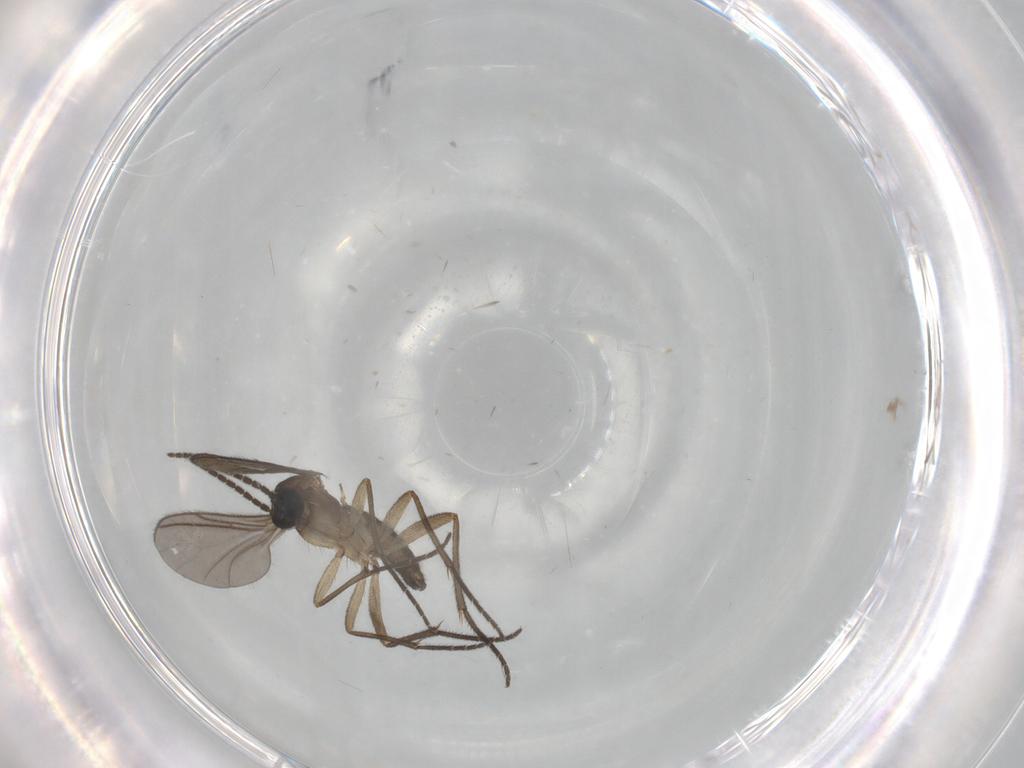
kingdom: Animalia
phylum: Arthropoda
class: Insecta
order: Diptera
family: Sciaridae
